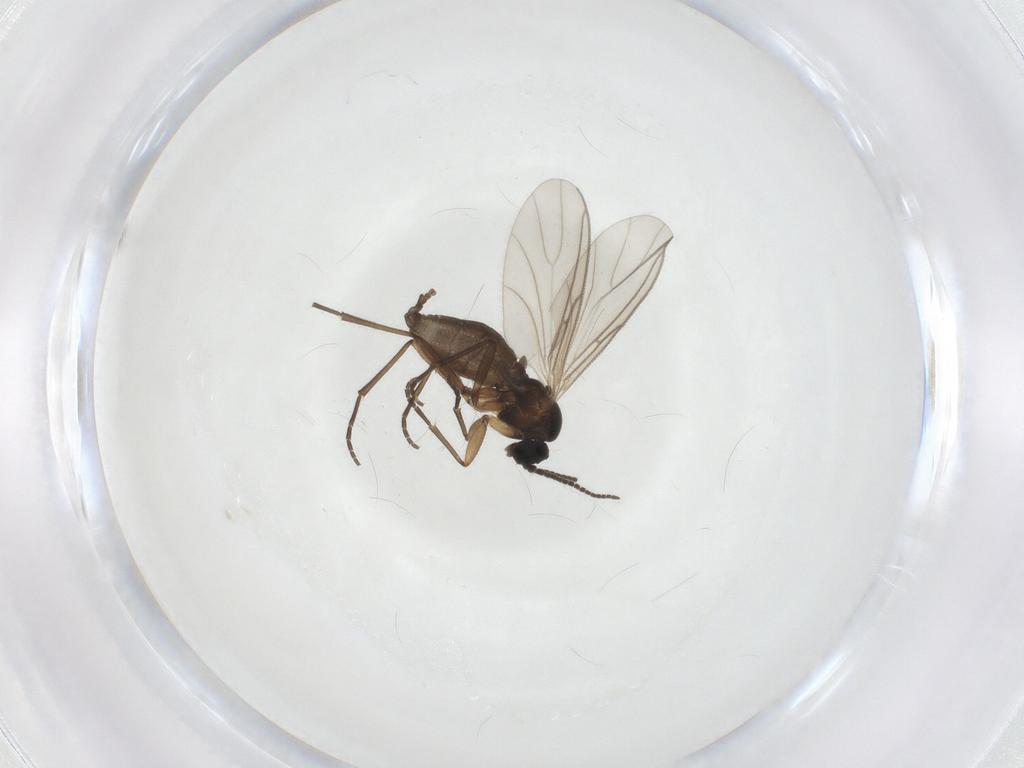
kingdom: Animalia
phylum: Arthropoda
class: Insecta
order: Diptera
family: Sciaridae
